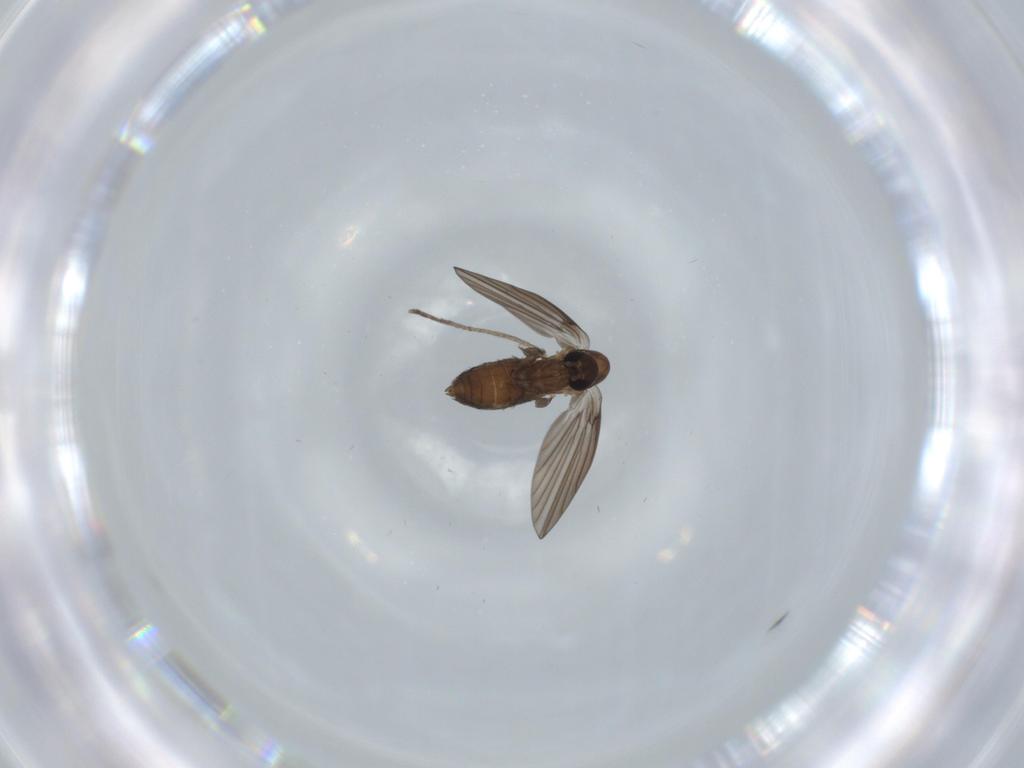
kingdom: Animalia
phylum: Arthropoda
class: Insecta
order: Diptera
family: Psychodidae
